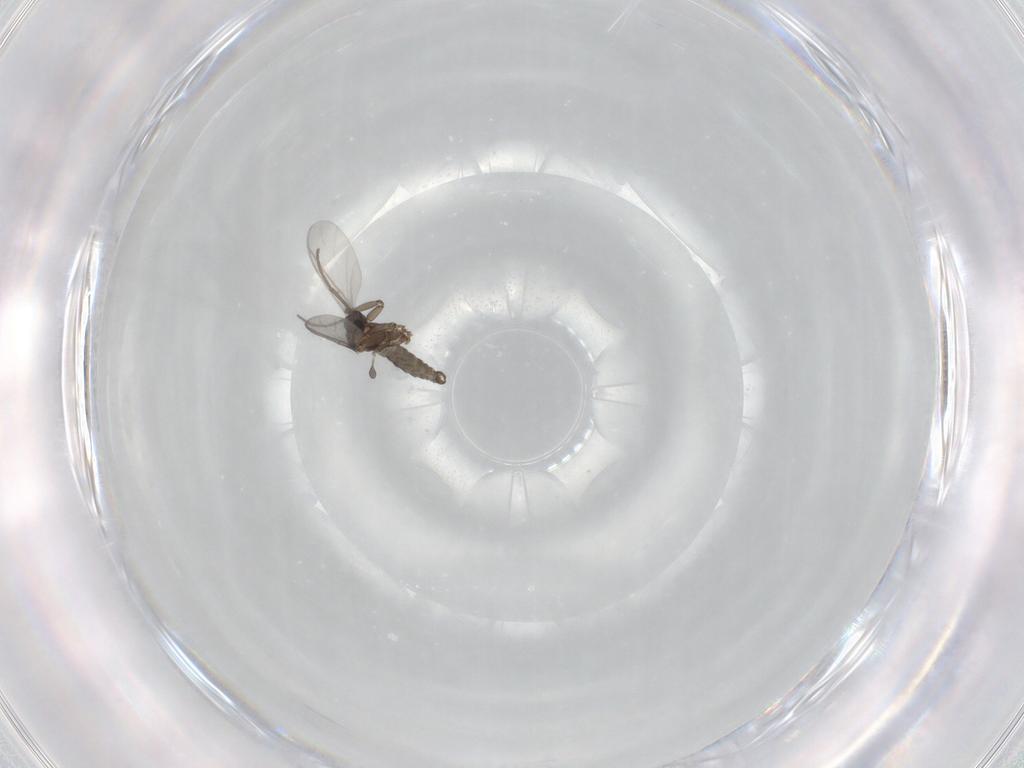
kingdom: Animalia
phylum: Arthropoda
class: Insecta
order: Diptera
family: Sciaridae
